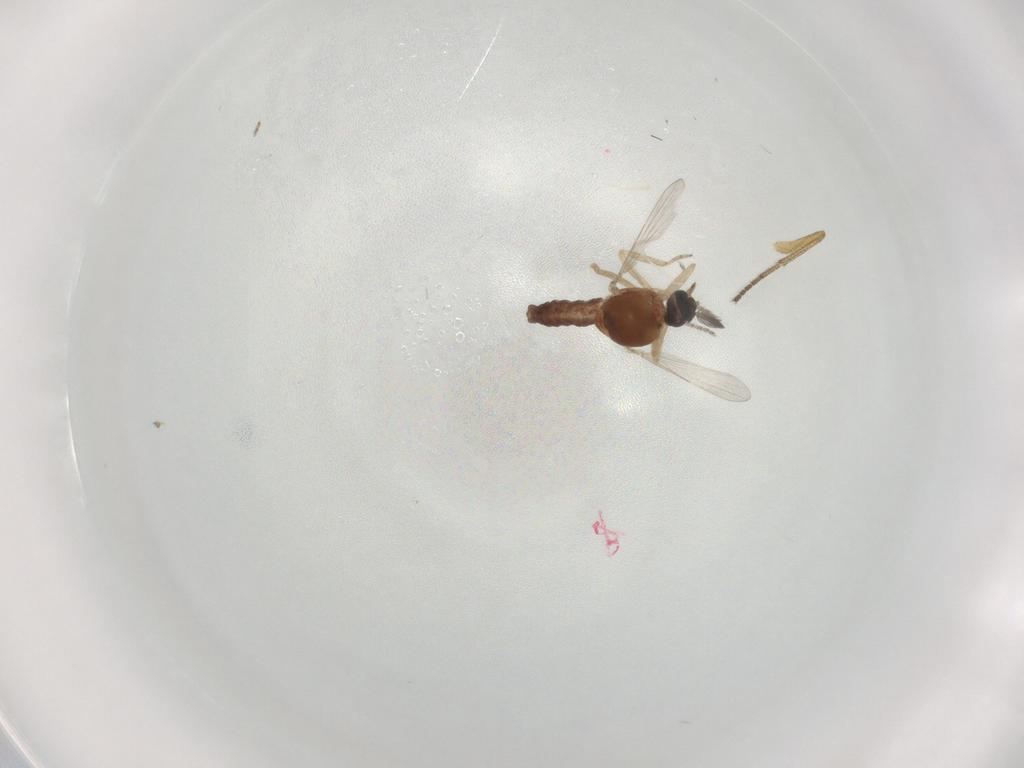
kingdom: Animalia
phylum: Arthropoda
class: Insecta
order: Diptera
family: Ceratopogonidae
